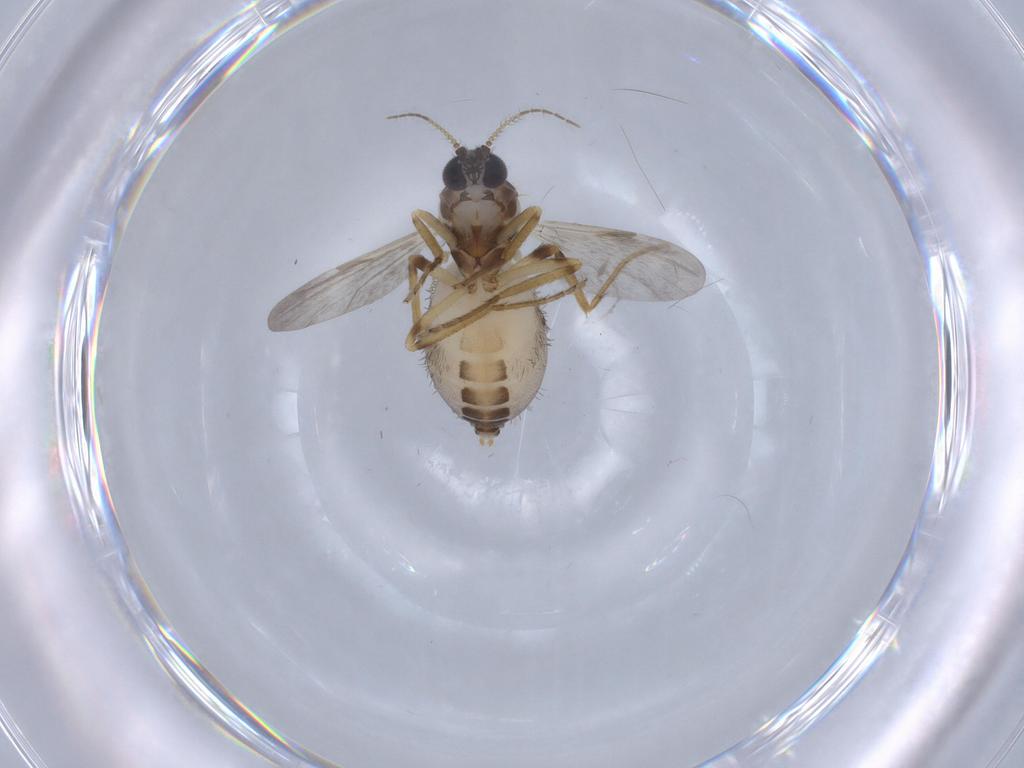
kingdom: Animalia
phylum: Arthropoda
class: Insecta
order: Diptera
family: Ceratopogonidae
